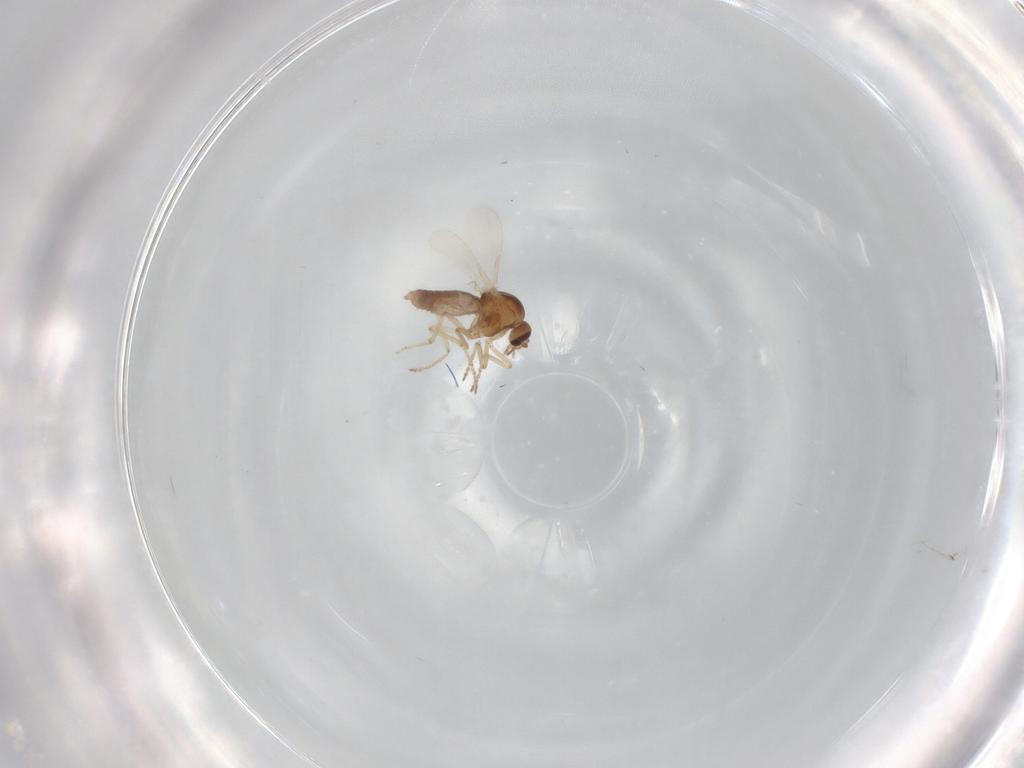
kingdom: Animalia
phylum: Arthropoda
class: Insecta
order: Diptera
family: Ceratopogonidae
